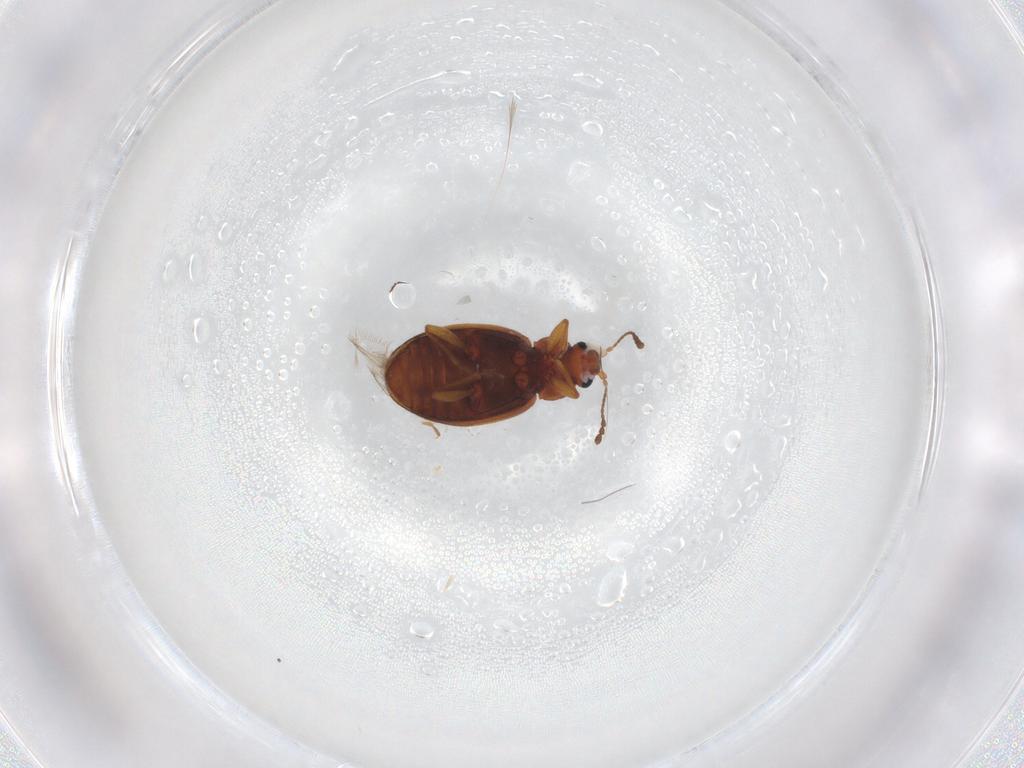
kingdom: Animalia
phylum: Arthropoda
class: Insecta
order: Coleoptera
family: Latridiidae
